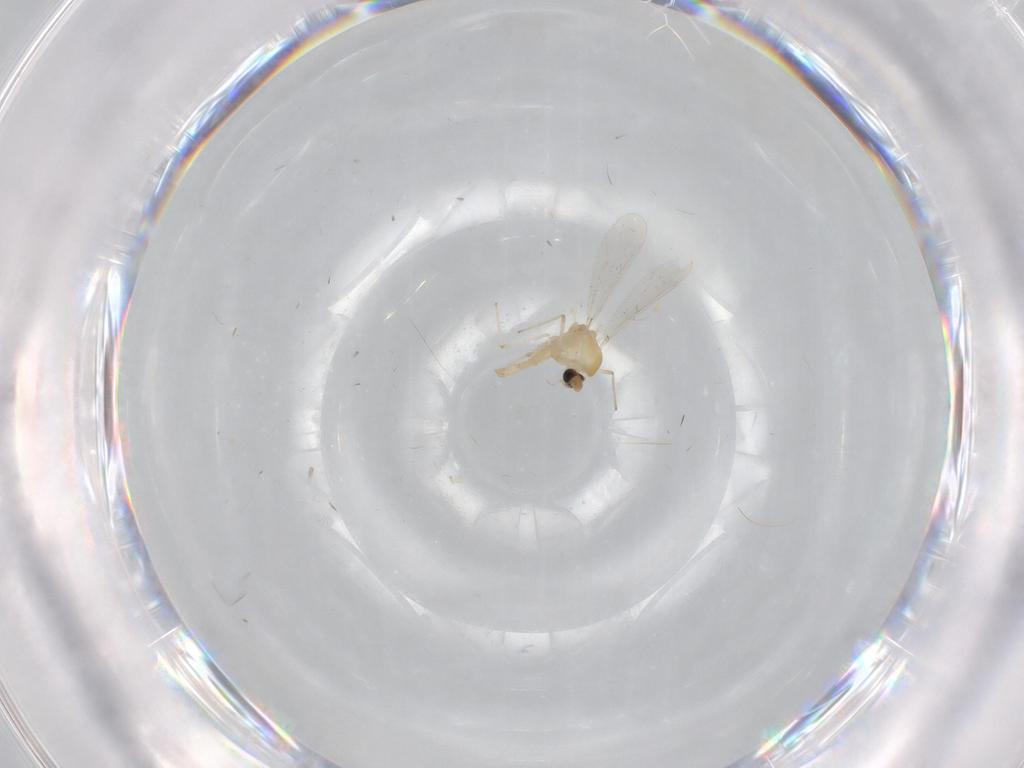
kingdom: Animalia
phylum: Arthropoda
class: Insecta
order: Diptera
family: Chironomidae
